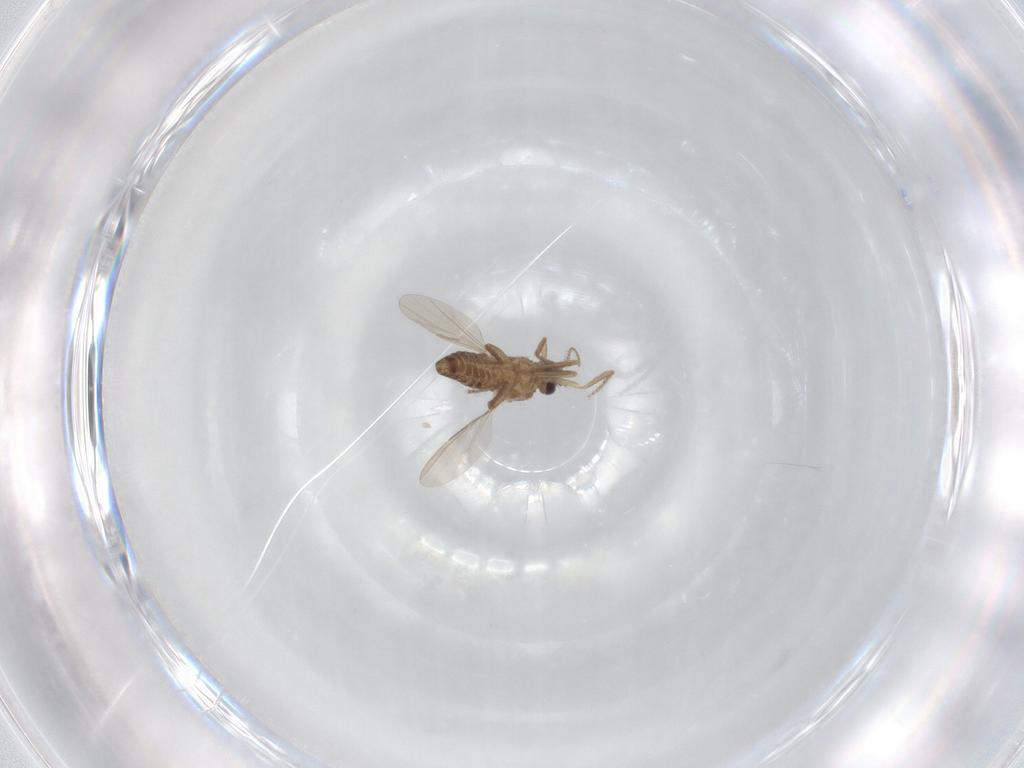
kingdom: Animalia
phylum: Arthropoda
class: Insecta
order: Diptera
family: Ceratopogonidae
